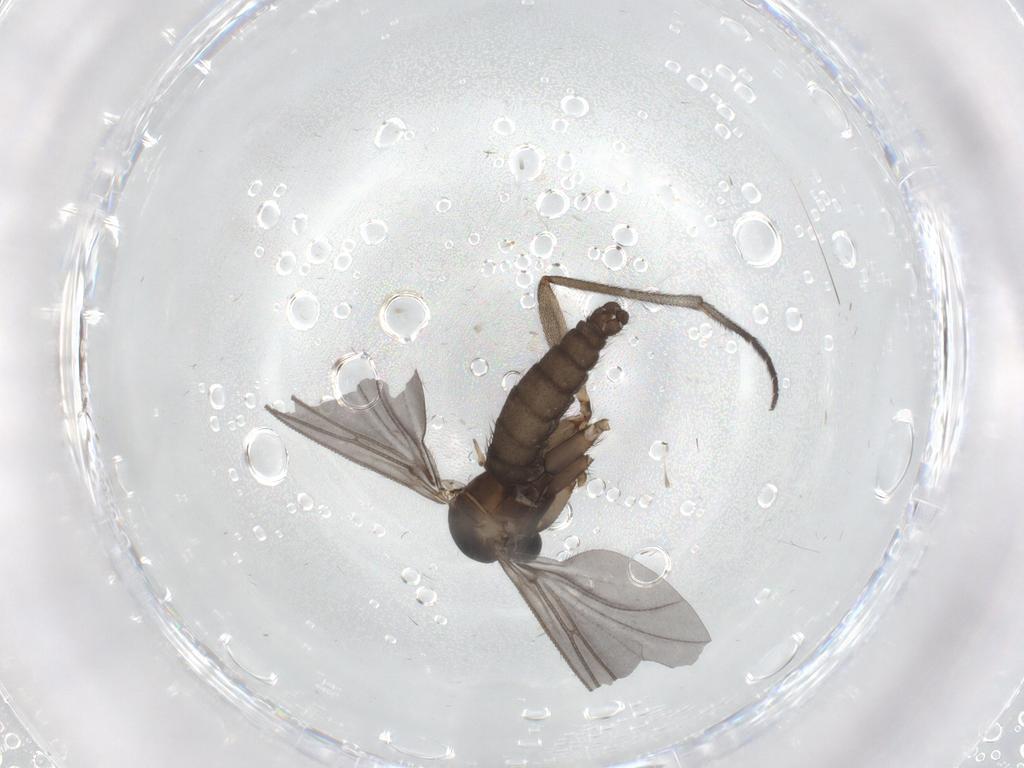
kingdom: Animalia
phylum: Arthropoda
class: Insecta
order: Diptera
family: Sciaridae
